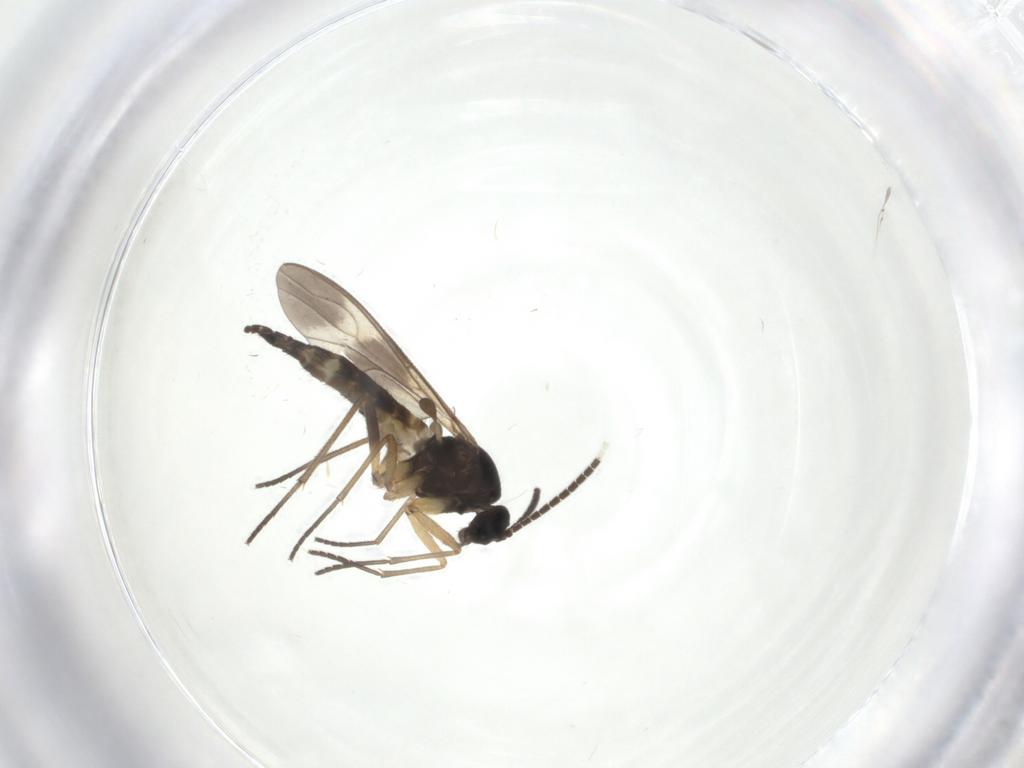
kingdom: Animalia
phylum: Arthropoda
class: Insecta
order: Diptera
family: Sciaridae
